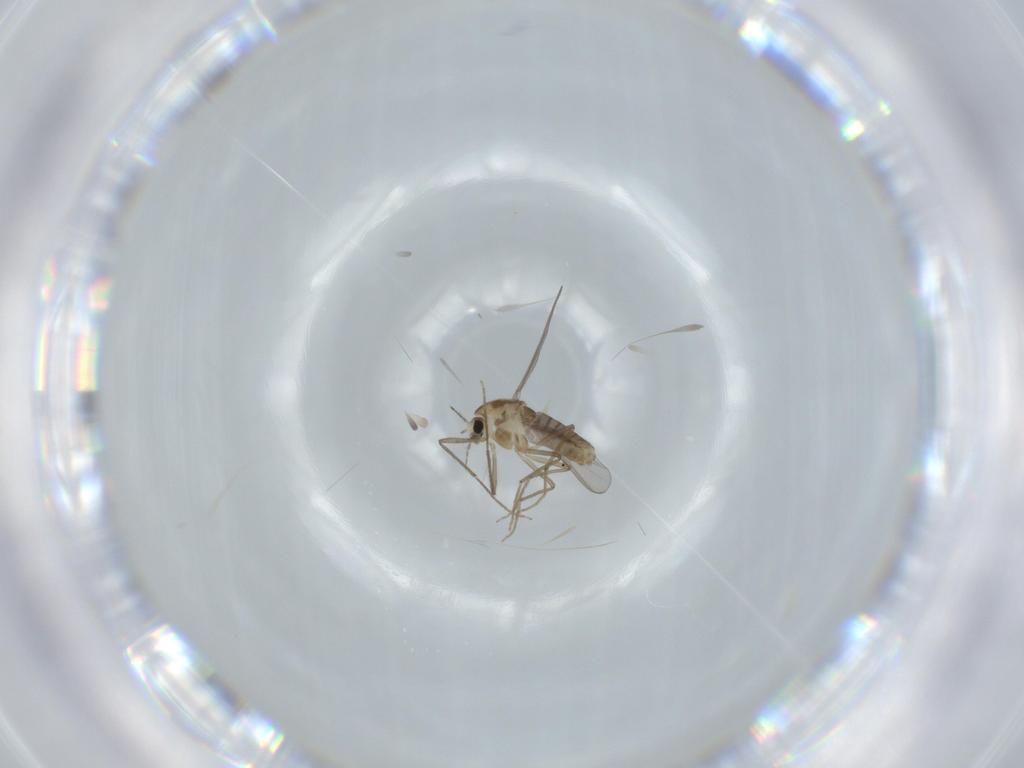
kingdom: Animalia
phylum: Arthropoda
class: Insecta
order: Diptera
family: Chironomidae
